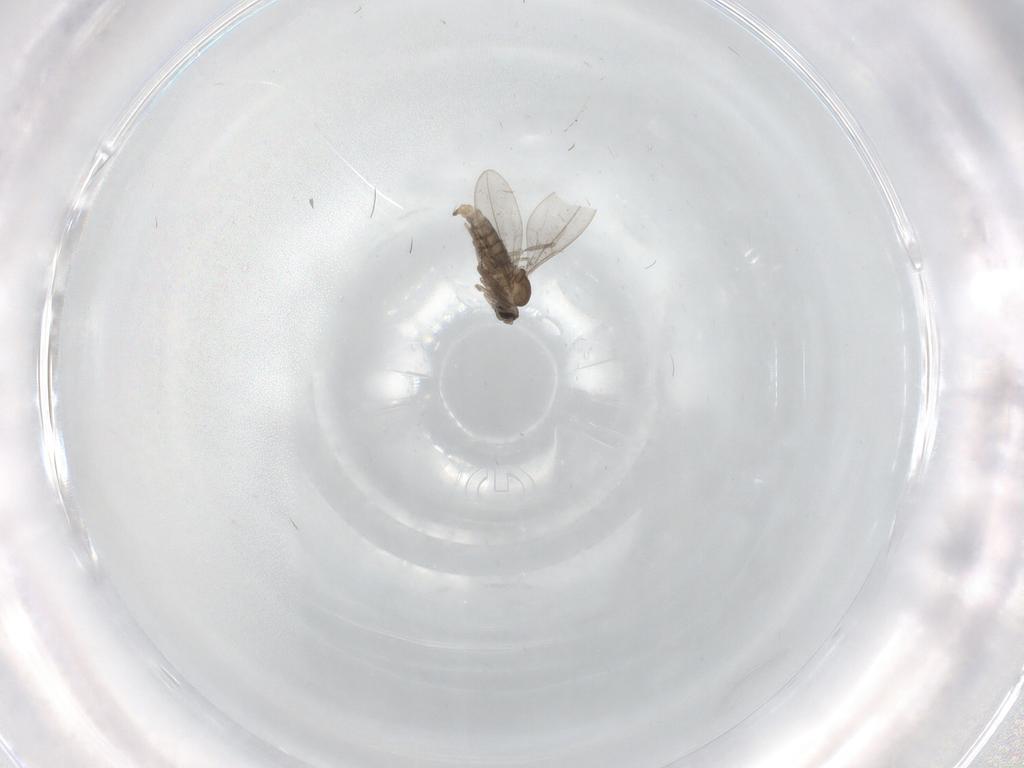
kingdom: Animalia
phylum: Arthropoda
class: Insecta
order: Diptera
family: Cecidomyiidae
